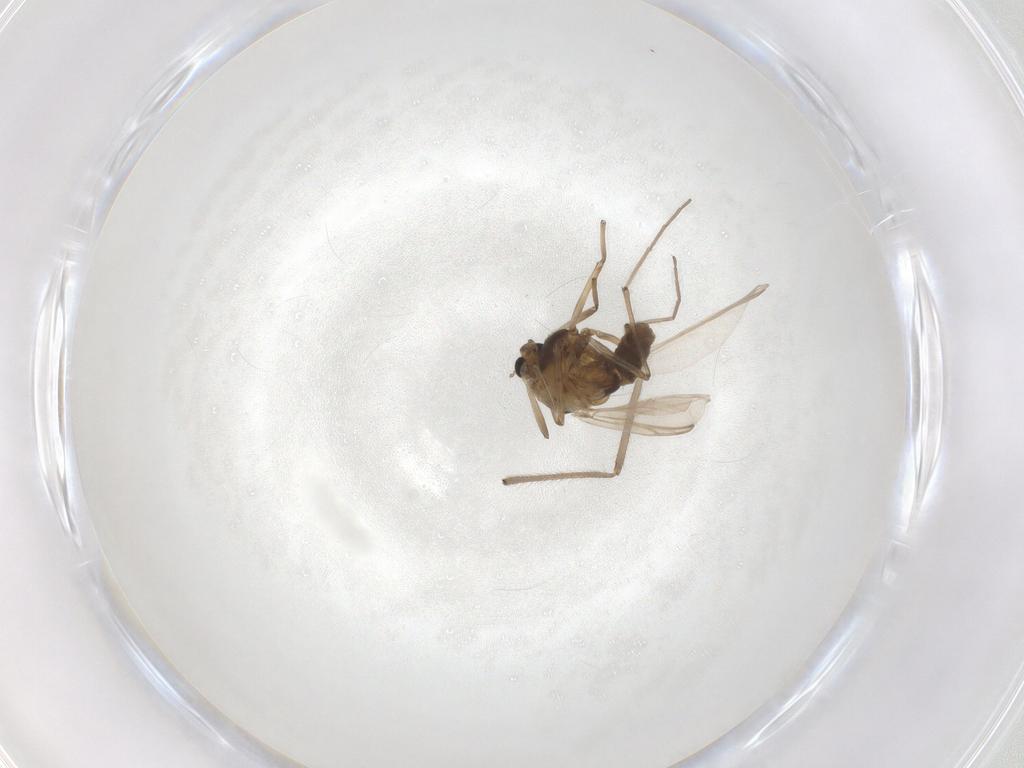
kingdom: Animalia
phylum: Arthropoda
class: Insecta
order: Diptera
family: Chironomidae
